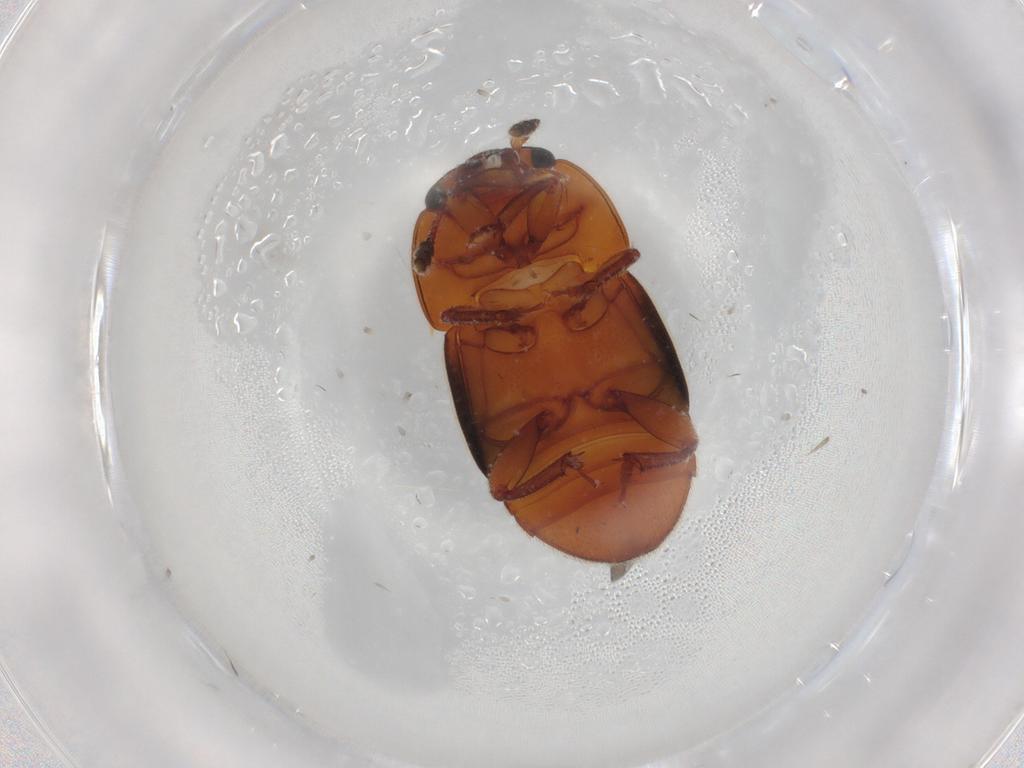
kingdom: Animalia
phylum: Arthropoda
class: Insecta
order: Coleoptera
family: Nitidulidae
